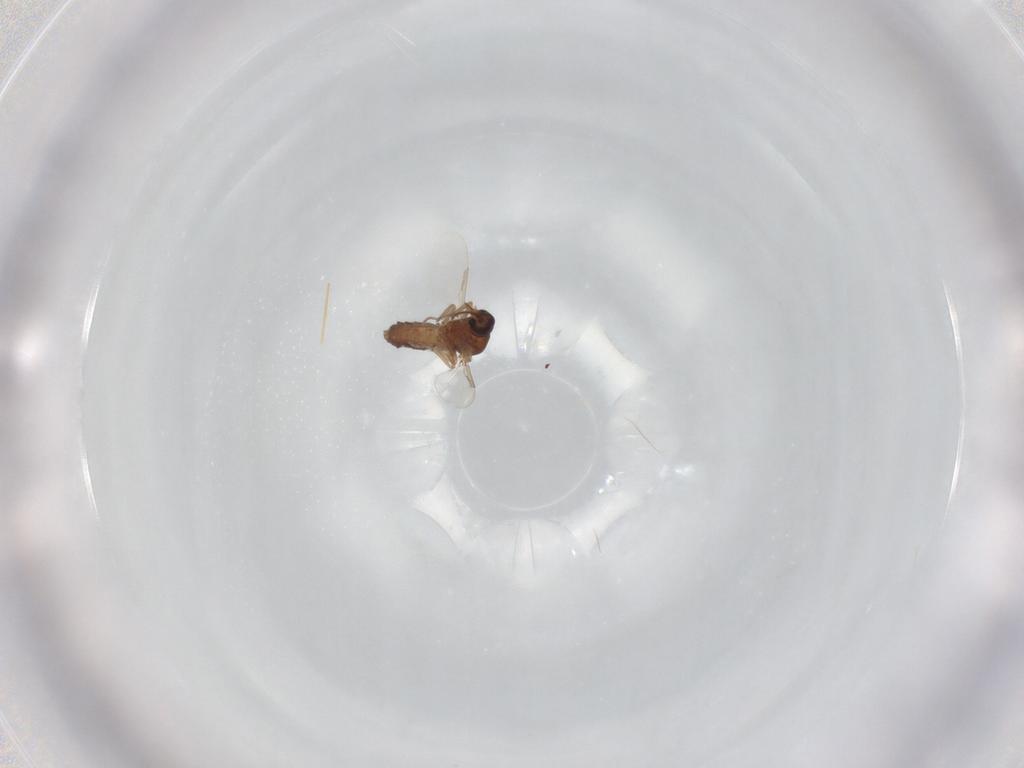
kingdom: Animalia
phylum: Arthropoda
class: Insecta
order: Diptera
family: Ceratopogonidae
